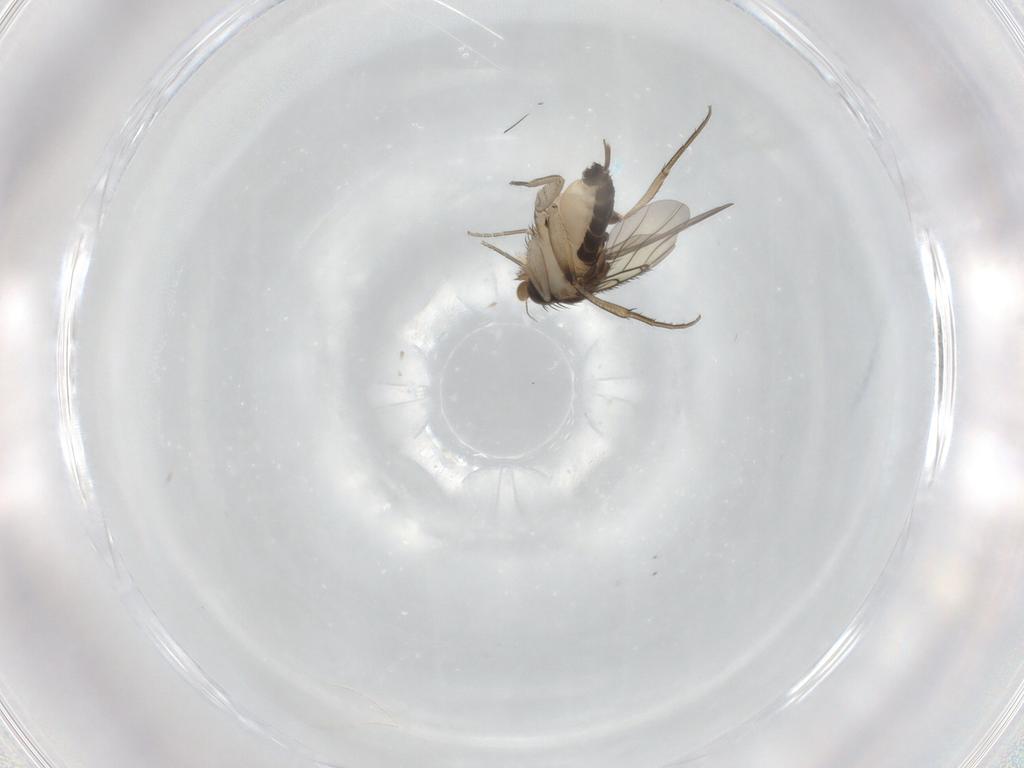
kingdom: Animalia
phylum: Arthropoda
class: Insecta
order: Diptera
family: Phoridae
